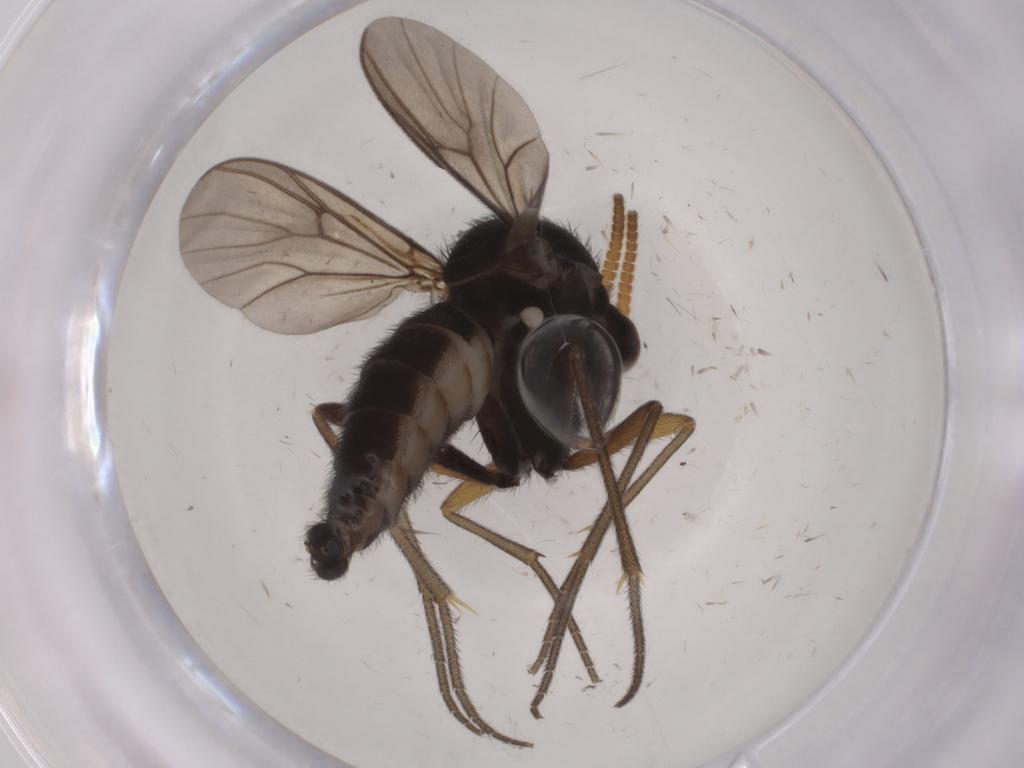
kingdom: Animalia
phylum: Arthropoda
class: Insecta
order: Diptera
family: Mycetophilidae
